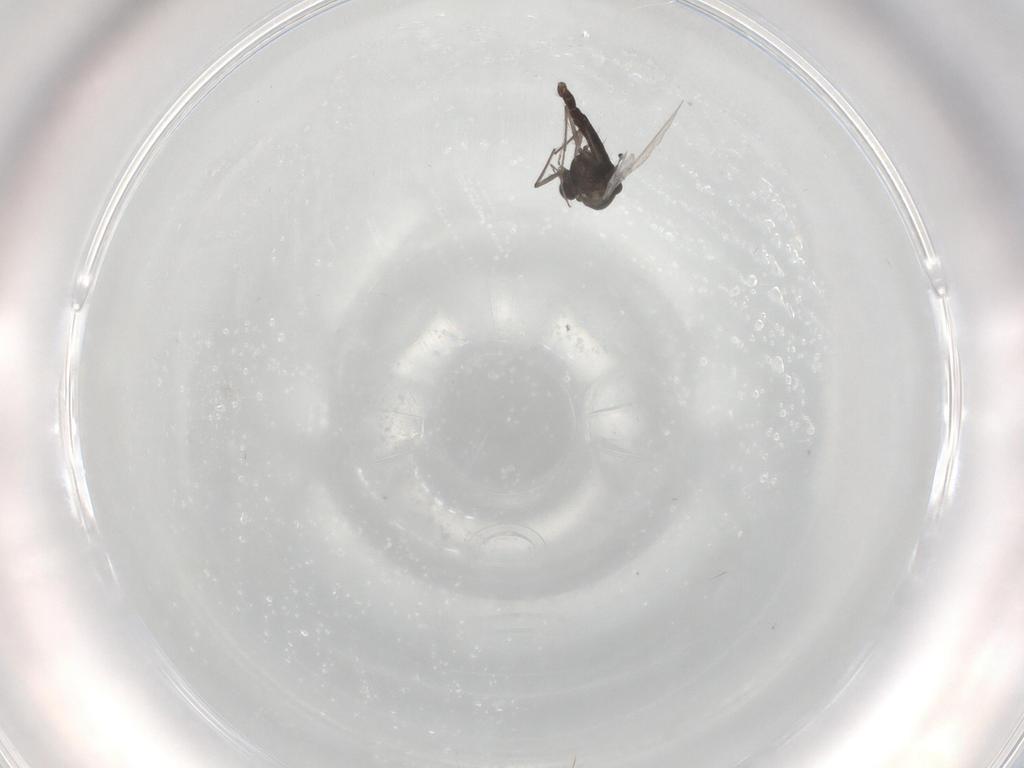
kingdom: Animalia
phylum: Arthropoda
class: Insecta
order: Diptera
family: Chironomidae
